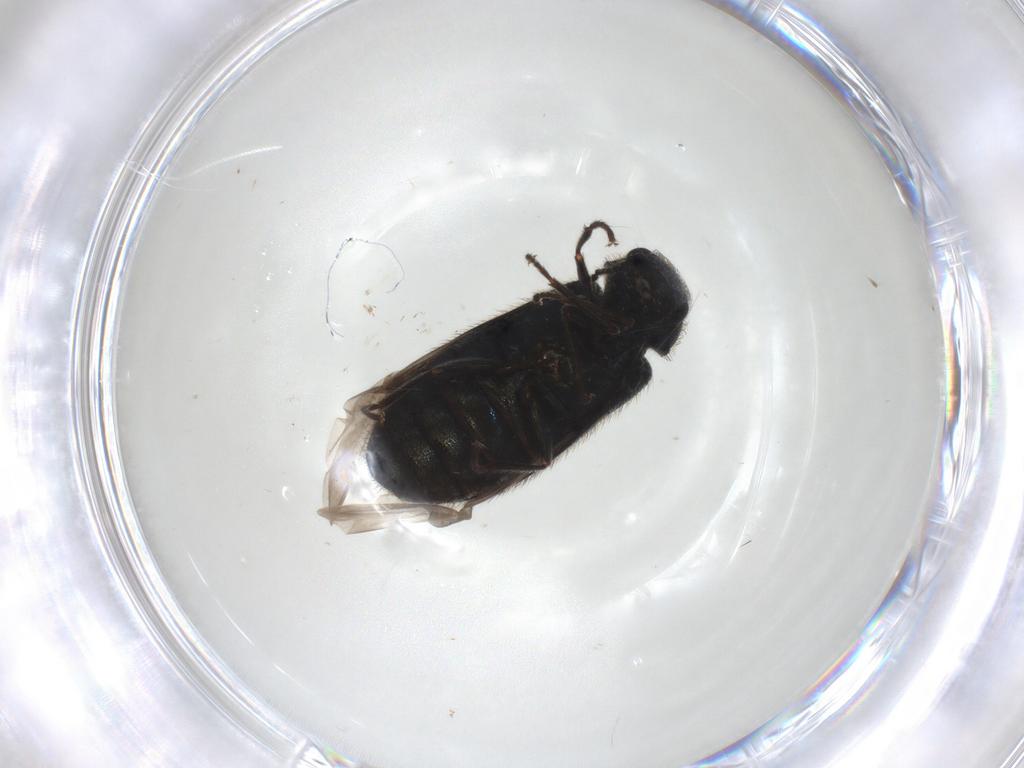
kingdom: Animalia
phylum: Arthropoda
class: Insecta
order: Coleoptera
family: Melyridae
